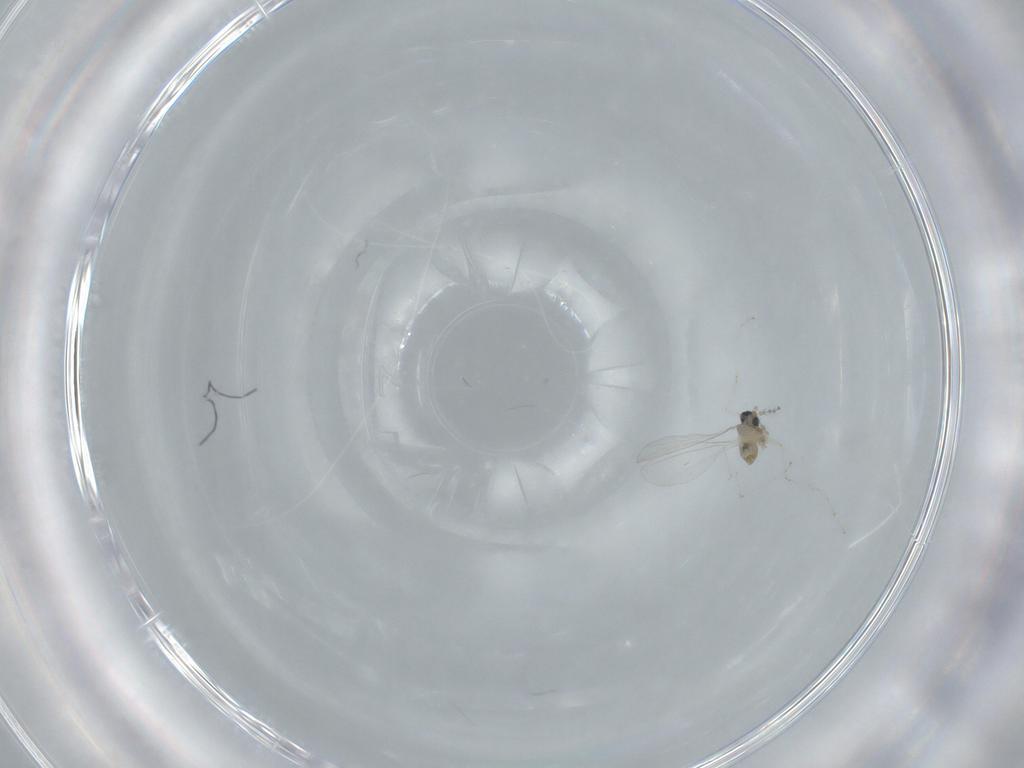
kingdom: Animalia
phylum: Arthropoda
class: Insecta
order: Diptera
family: Cecidomyiidae
